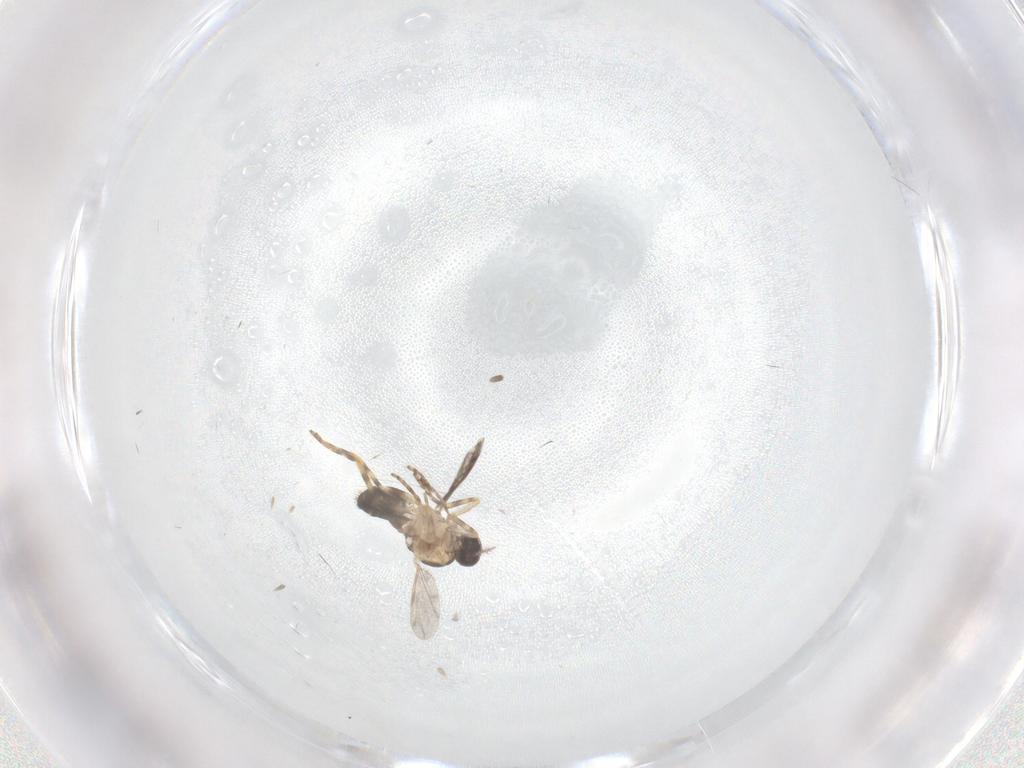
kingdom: Animalia
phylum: Arthropoda
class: Insecta
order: Diptera
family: Ceratopogonidae
